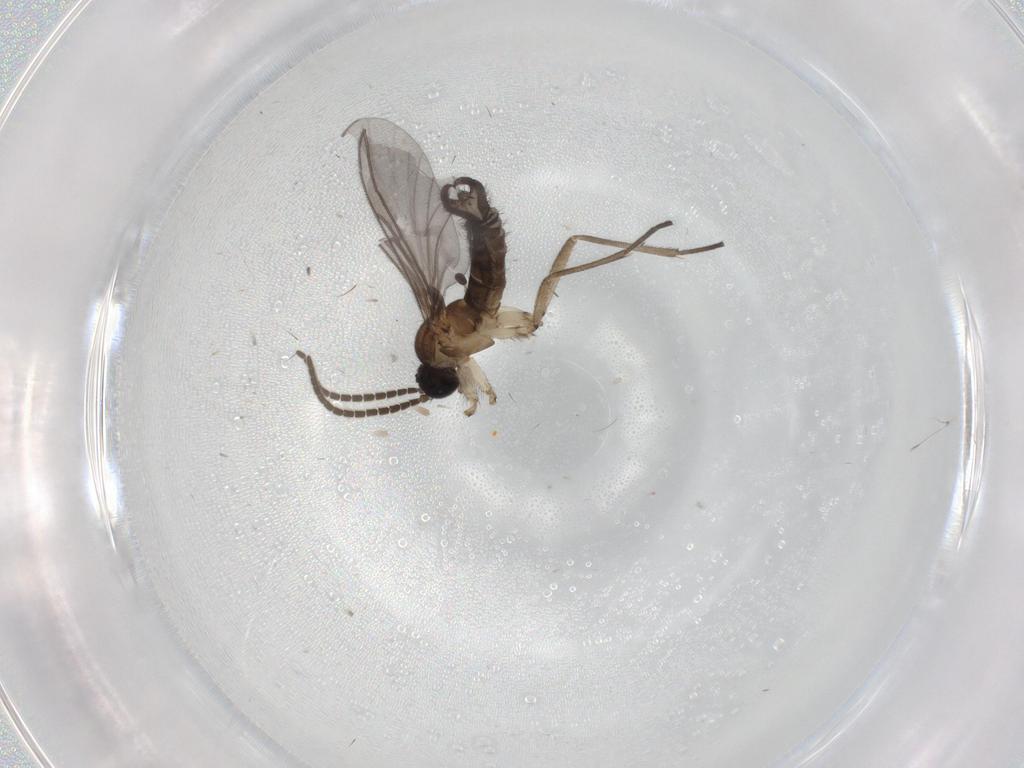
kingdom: Animalia
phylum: Arthropoda
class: Insecta
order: Diptera
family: Sciaridae
